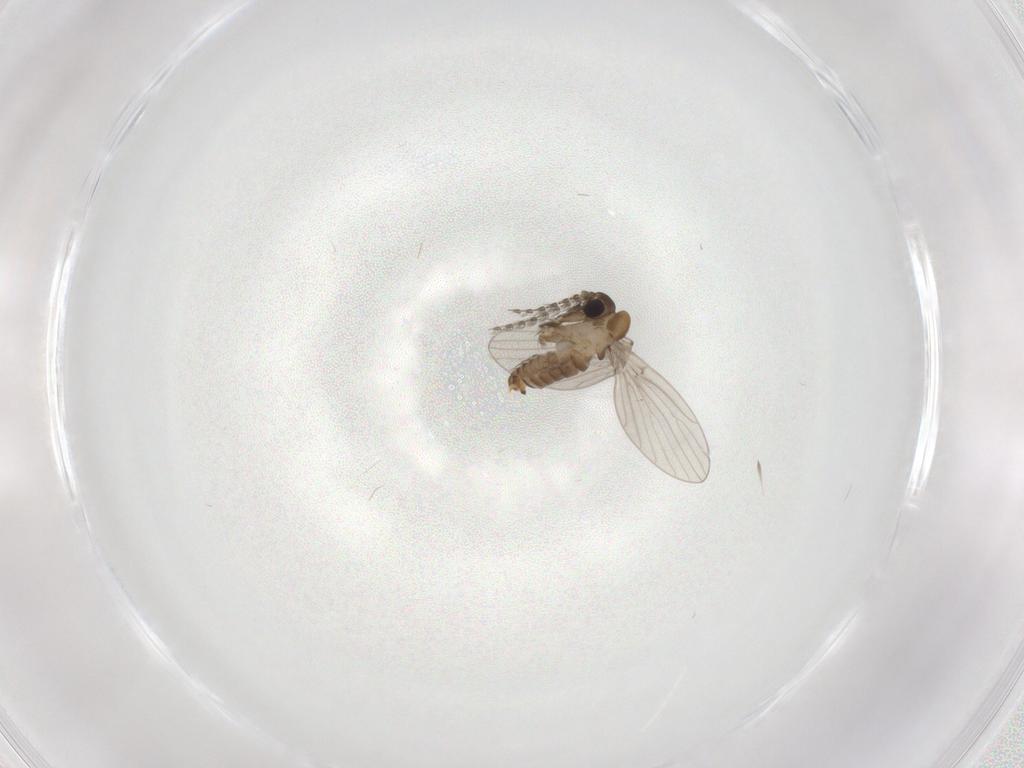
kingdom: Animalia
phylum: Arthropoda
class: Insecta
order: Diptera
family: Psychodidae
